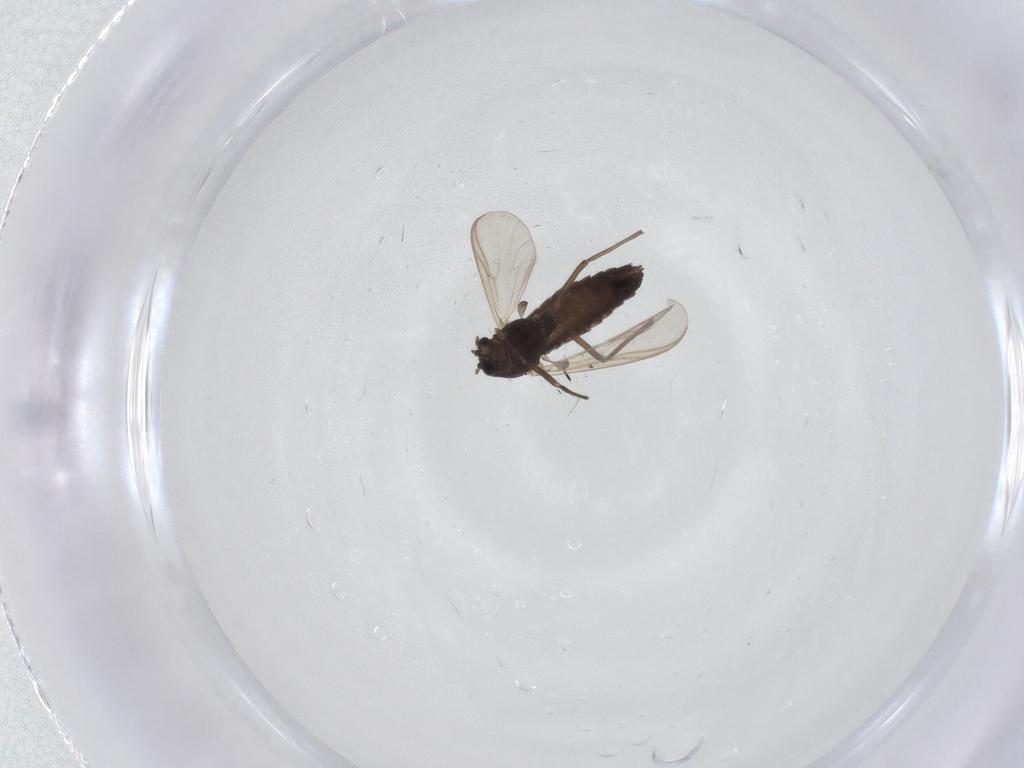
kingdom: Animalia
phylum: Arthropoda
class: Insecta
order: Diptera
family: Chironomidae
